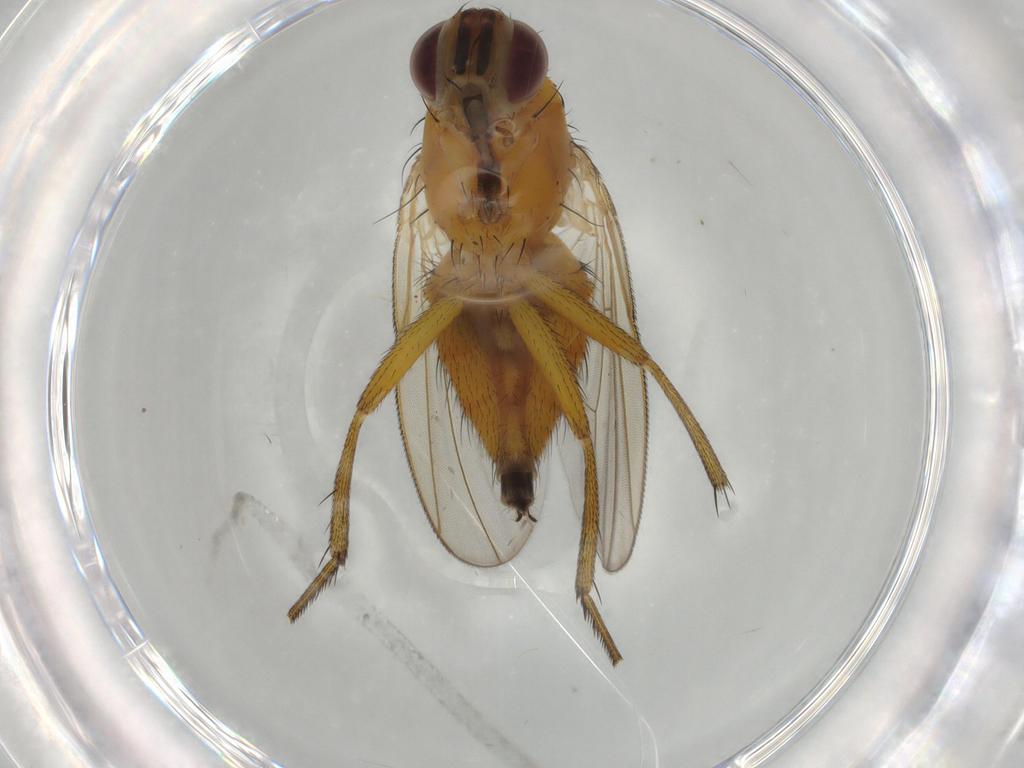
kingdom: Animalia
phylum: Arthropoda
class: Insecta
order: Diptera
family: Muscidae
